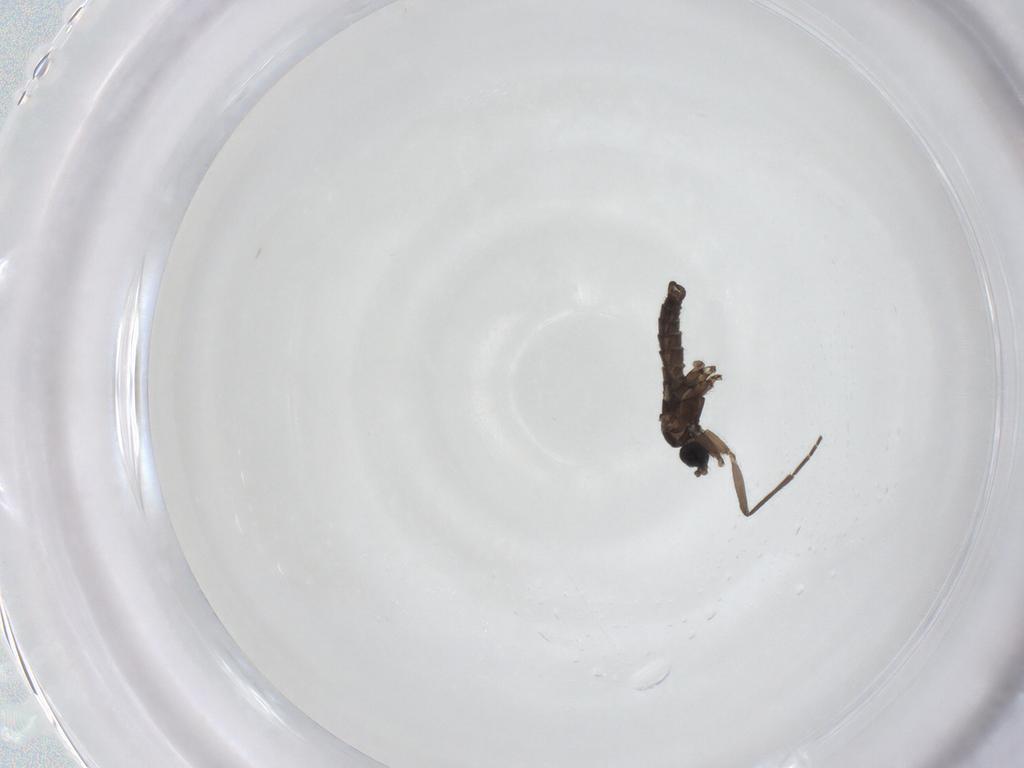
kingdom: Animalia
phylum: Arthropoda
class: Insecta
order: Diptera
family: Sciaridae
